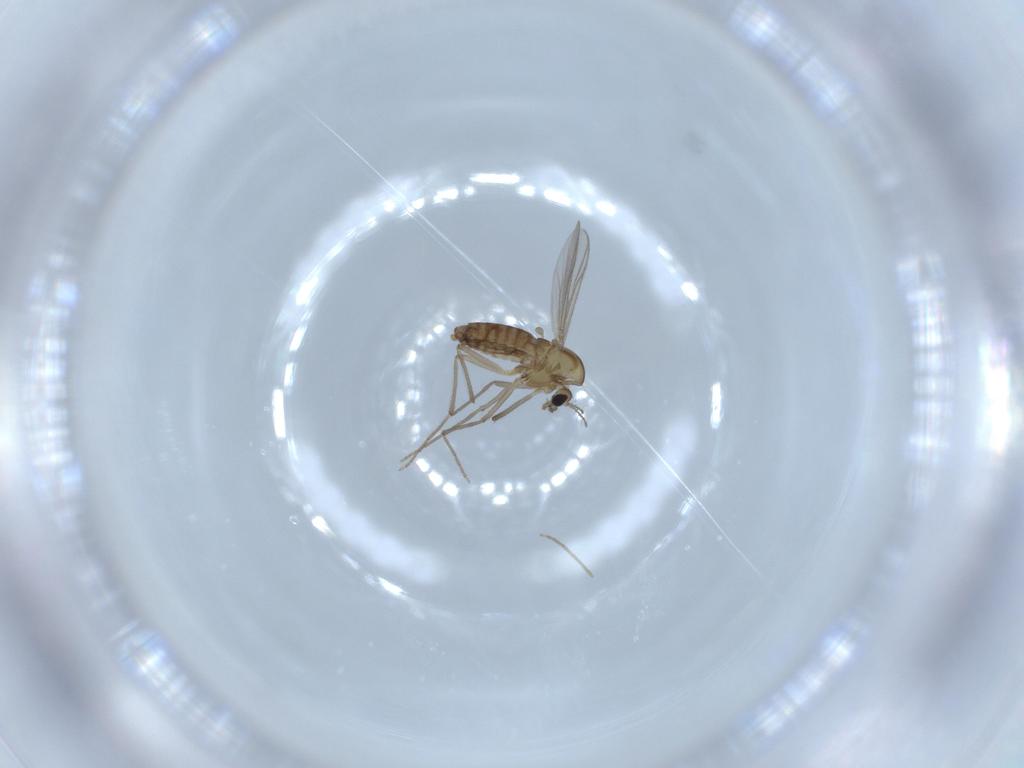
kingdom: Animalia
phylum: Arthropoda
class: Insecta
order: Diptera
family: Chironomidae
